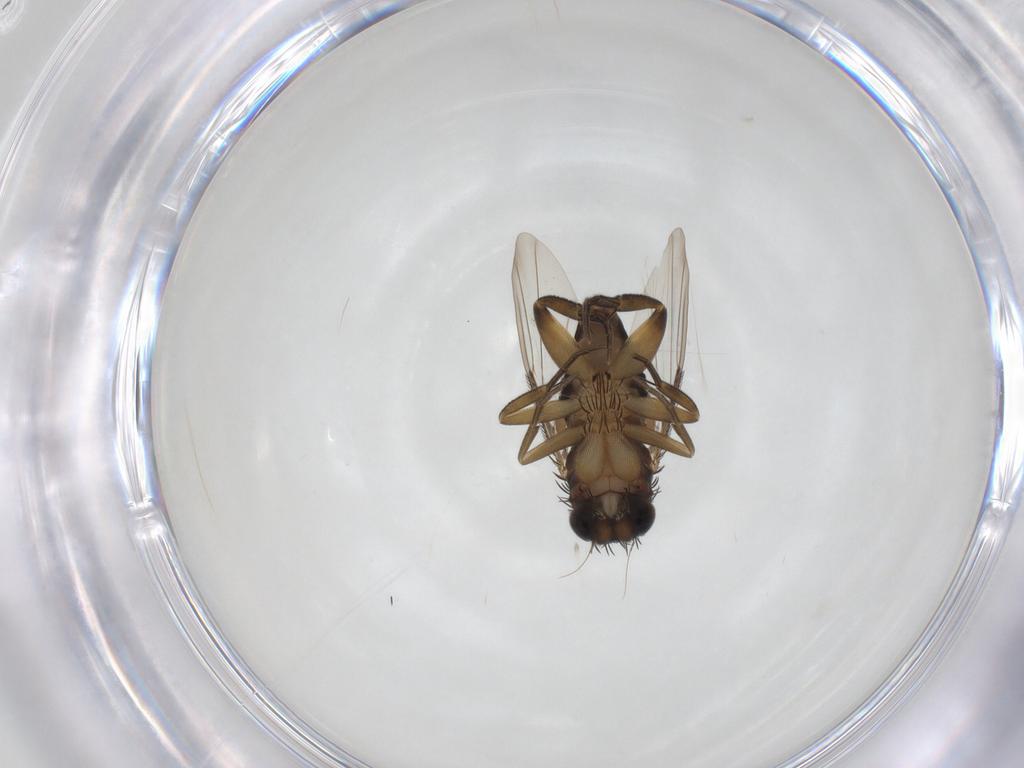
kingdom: Animalia
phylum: Arthropoda
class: Insecta
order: Diptera
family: Phoridae
